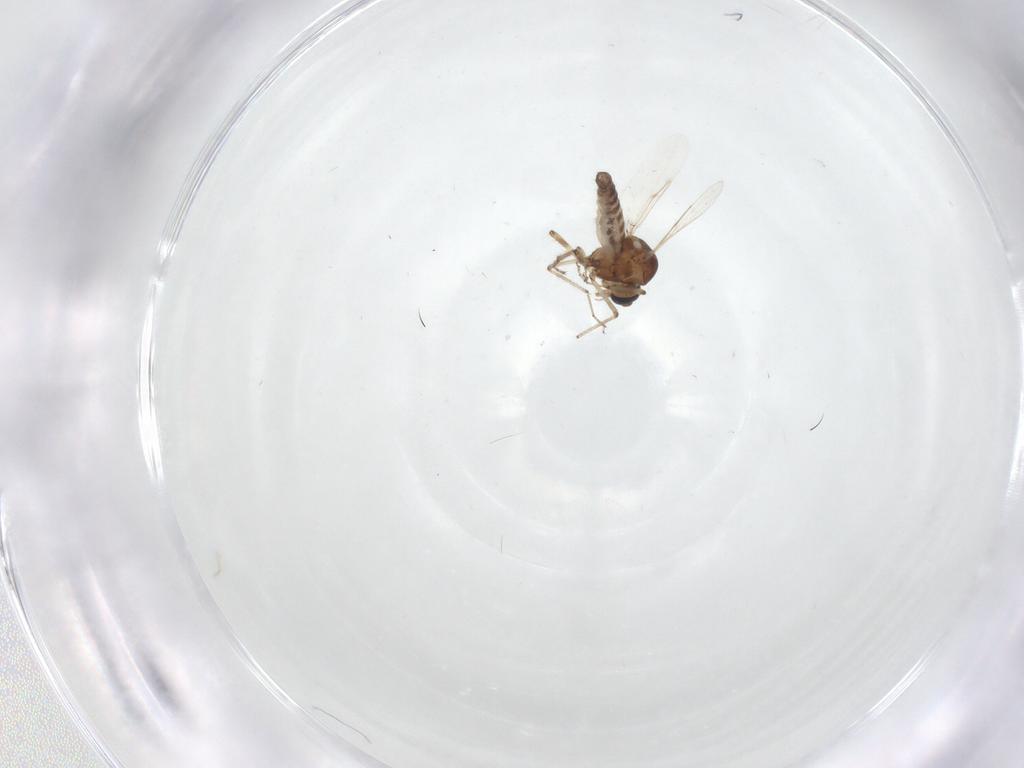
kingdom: Animalia
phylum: Arthropoda
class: Insecta
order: Diptera
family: Ceratopogonidae
